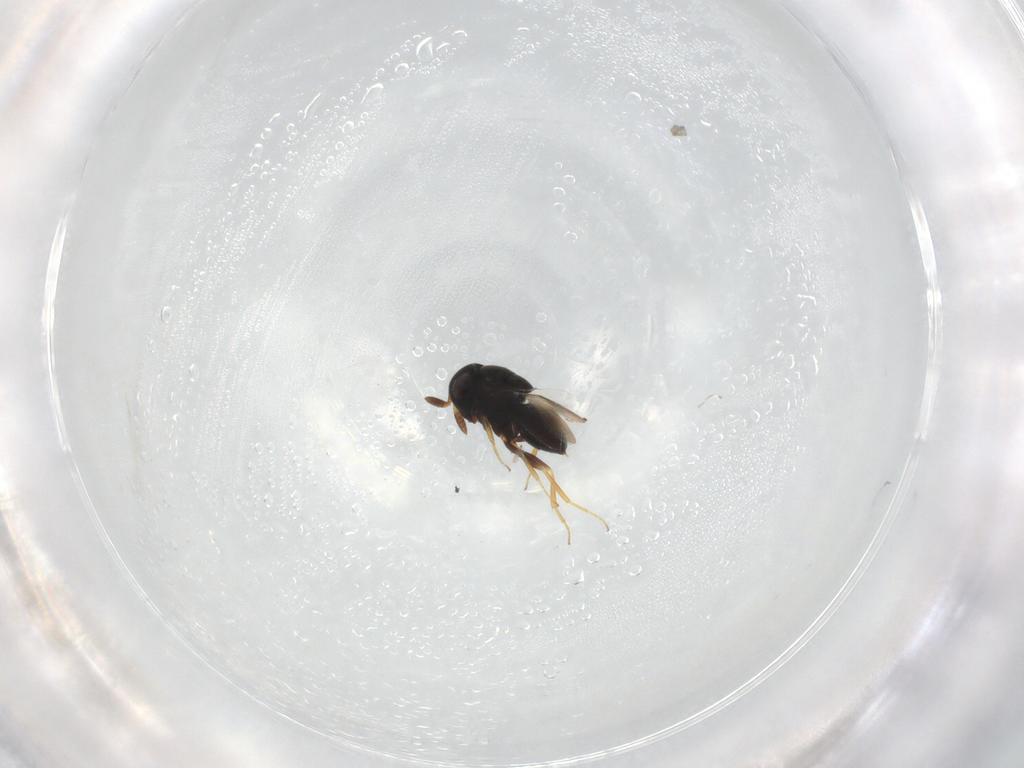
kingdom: Animalia
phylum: Arthropoda
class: Insecta
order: Hymenoptera
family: Scelionidae
